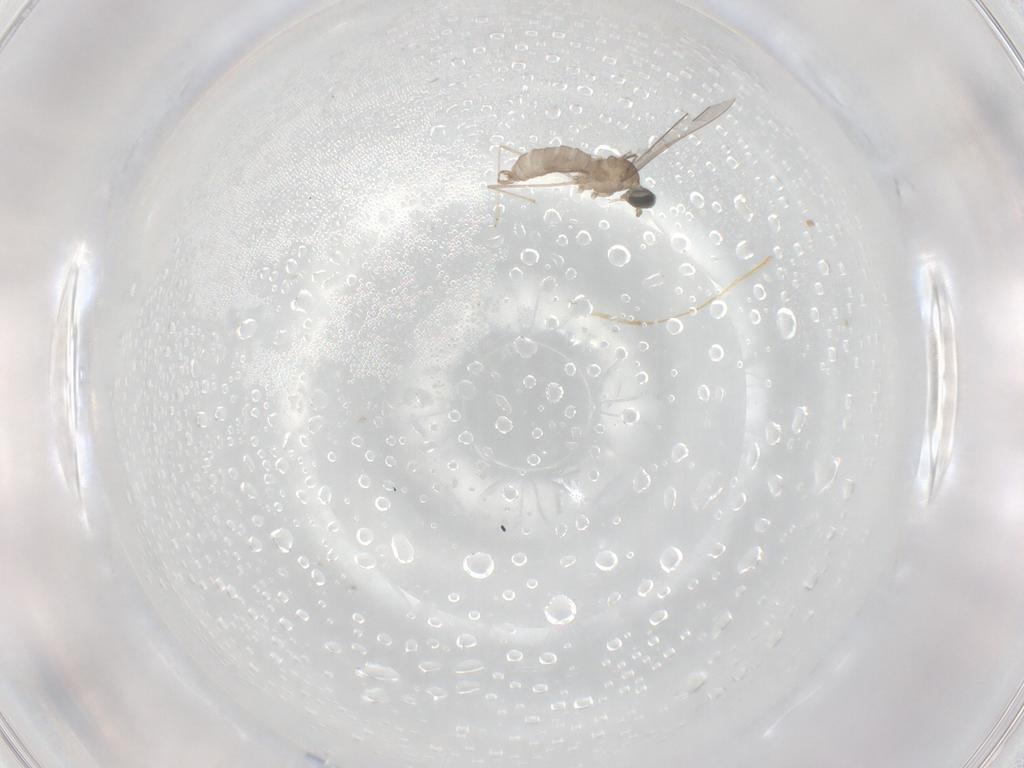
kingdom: Animalia
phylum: Arthropoda
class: Insecta
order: Diptera
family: Cecidomyiidae
